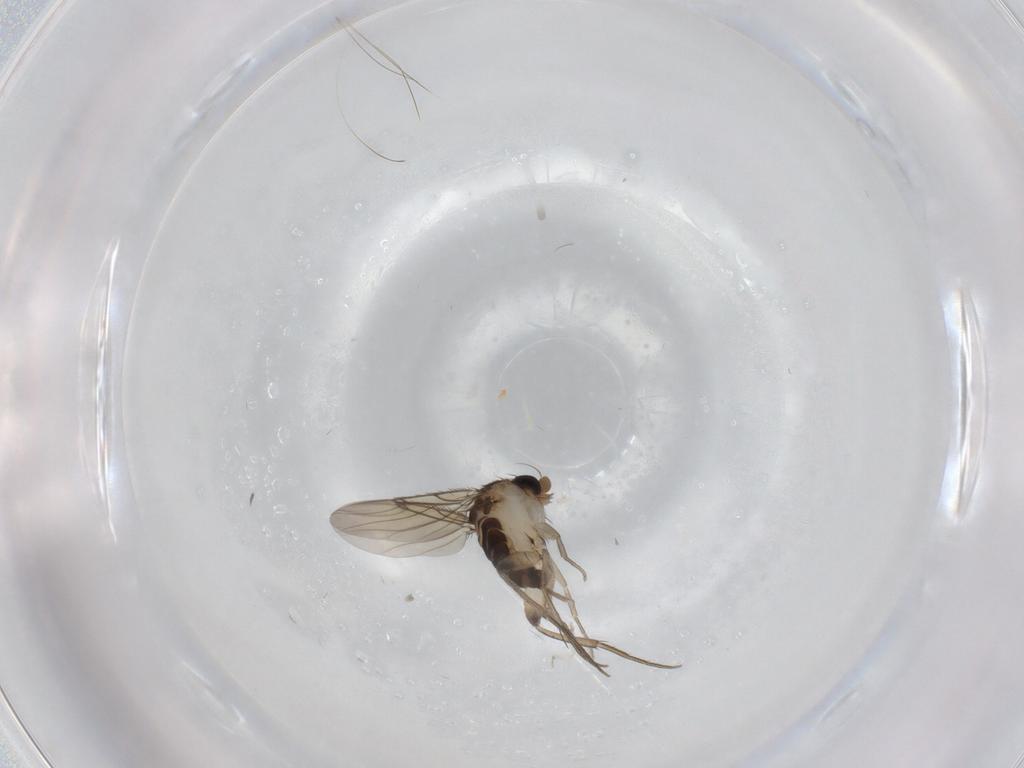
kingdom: Animalia
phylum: Arthropoda
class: Insecta
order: Diptera
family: Phoridae
